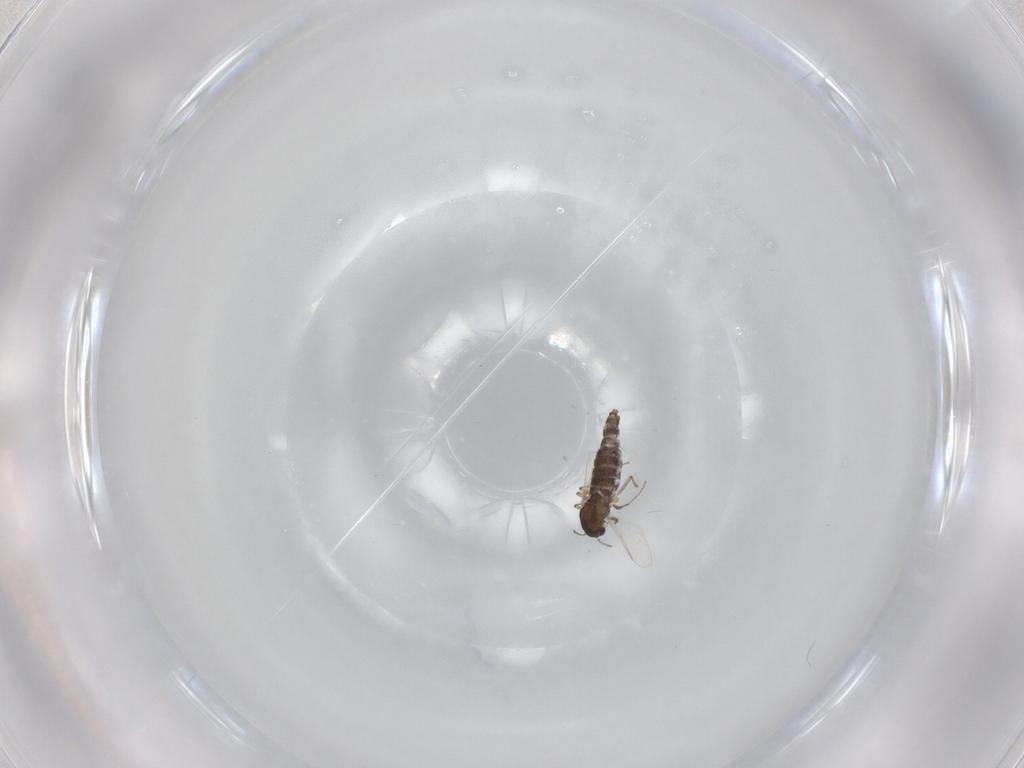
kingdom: Animalia
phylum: Arthropoda
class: Insecta
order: Diptera
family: Chironomidae
